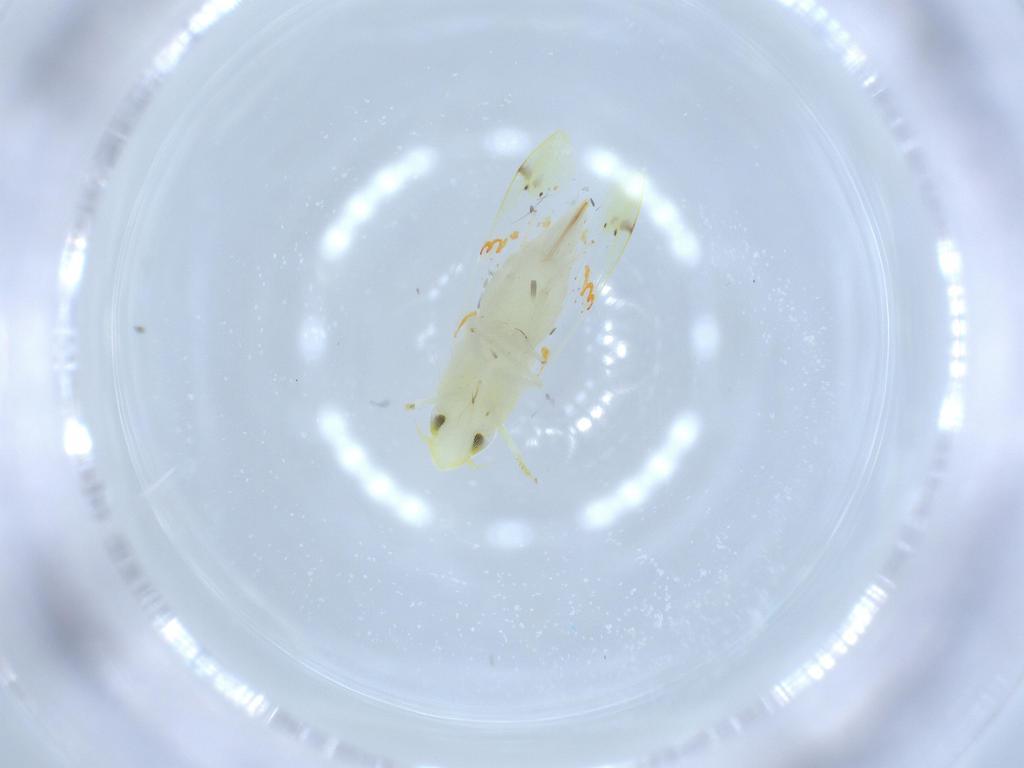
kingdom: Animalia
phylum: Arthropoda
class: Insecta
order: Hemiptera
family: Cicadellidae
